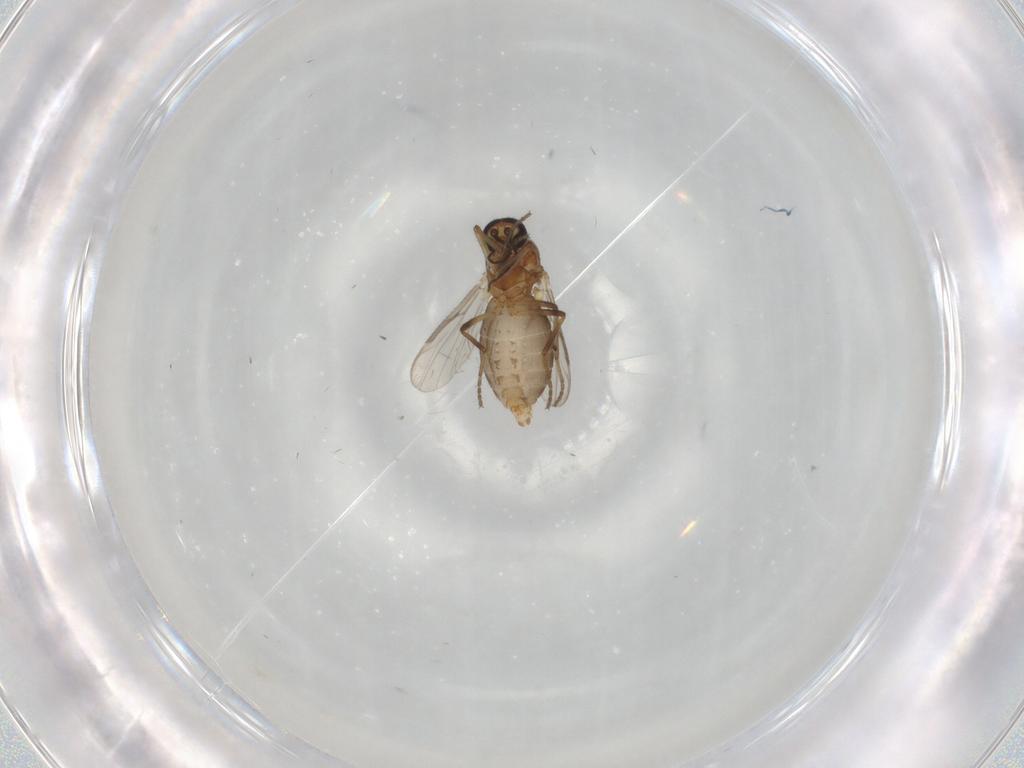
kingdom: Animalia
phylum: Arthropoda
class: Insecta
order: Diptera
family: Ceratopogonidae
